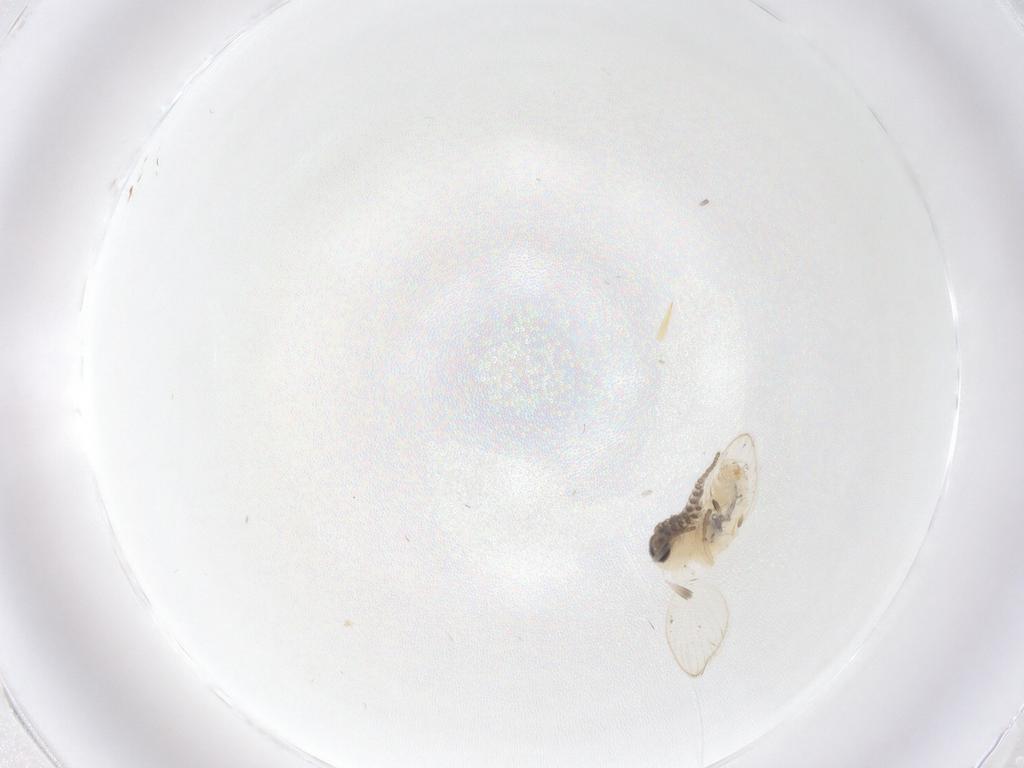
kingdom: Animalia
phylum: Arthropoda
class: Insecta
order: Diptera
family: Psychodidae
